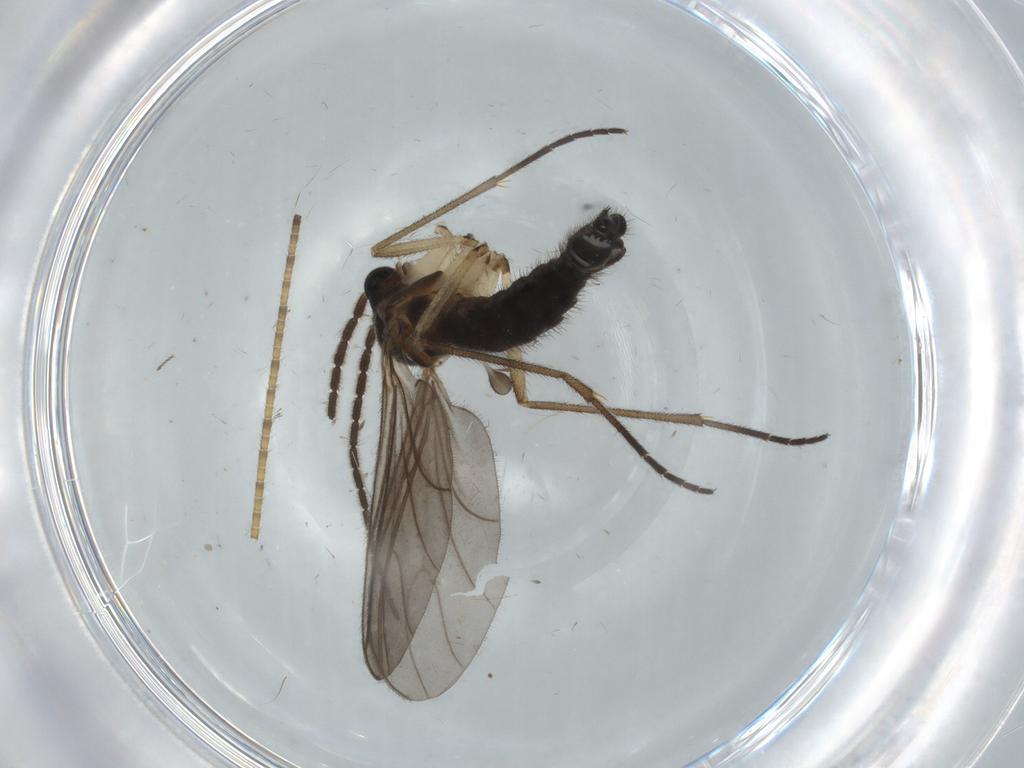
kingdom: Animalia
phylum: Arthropoda
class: Insecta
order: Diptera
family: Sciaridae
